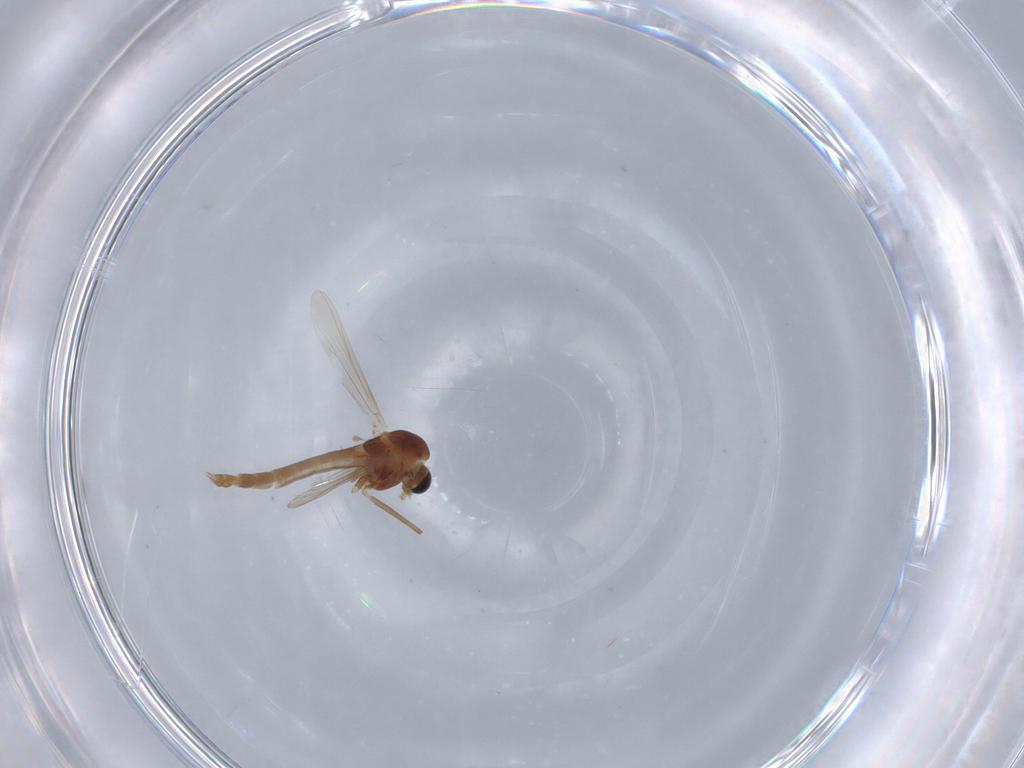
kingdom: Animalia
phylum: Arthropoda
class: Insecta
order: Diptera
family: Chironomidae
